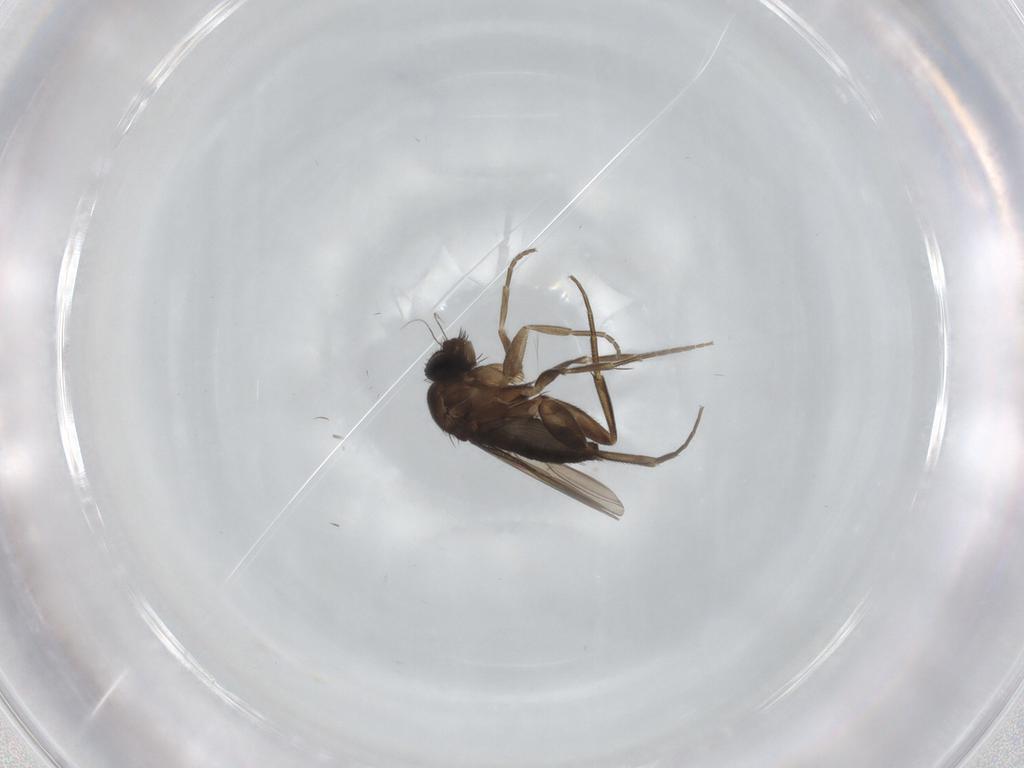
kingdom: Animalia
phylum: Arthropoda
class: Insecta
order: Diptera
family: Phoridae
